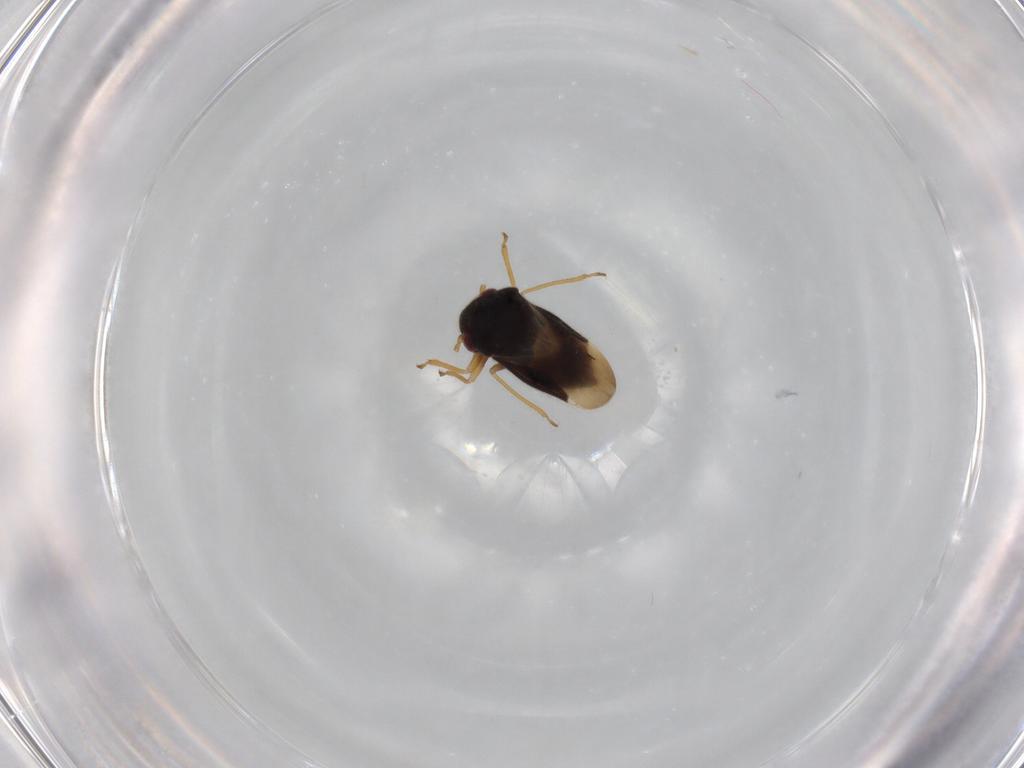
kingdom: Animalia
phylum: Arthropoda
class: Insecta
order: Hemiptera
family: Schizopteridae
